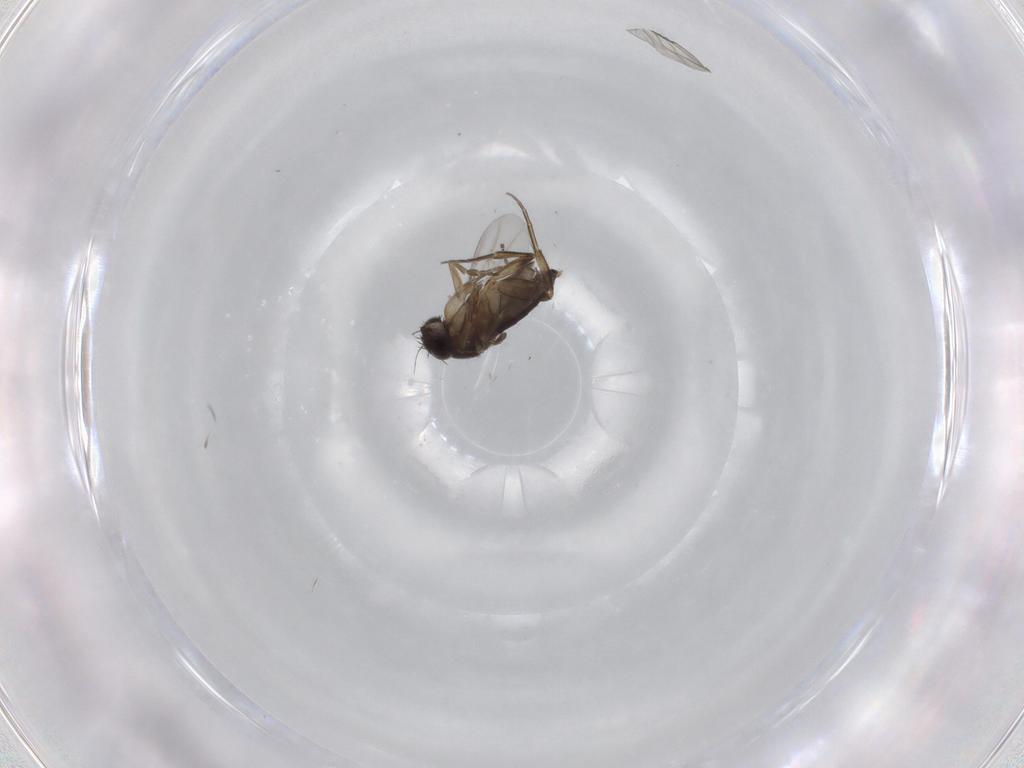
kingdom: Animalia
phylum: Arthropoda
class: Insecta
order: Diptera
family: Phoridae
